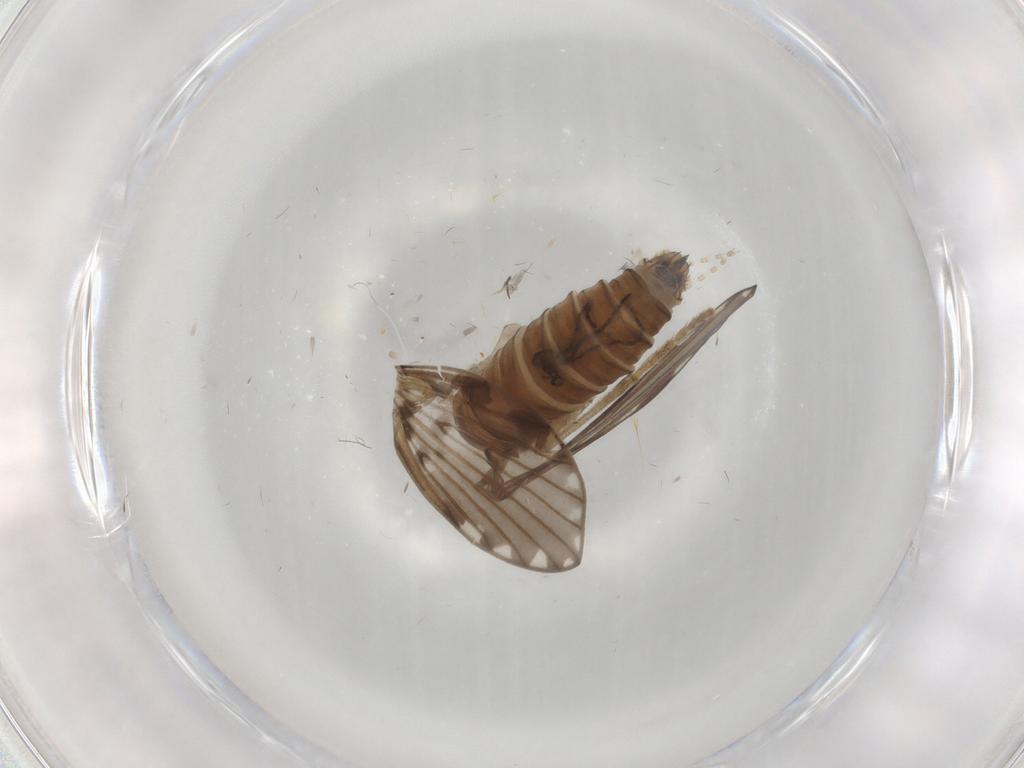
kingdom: Animalia
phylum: Arthropoda
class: Insecta
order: Diptera
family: Psychodidae
